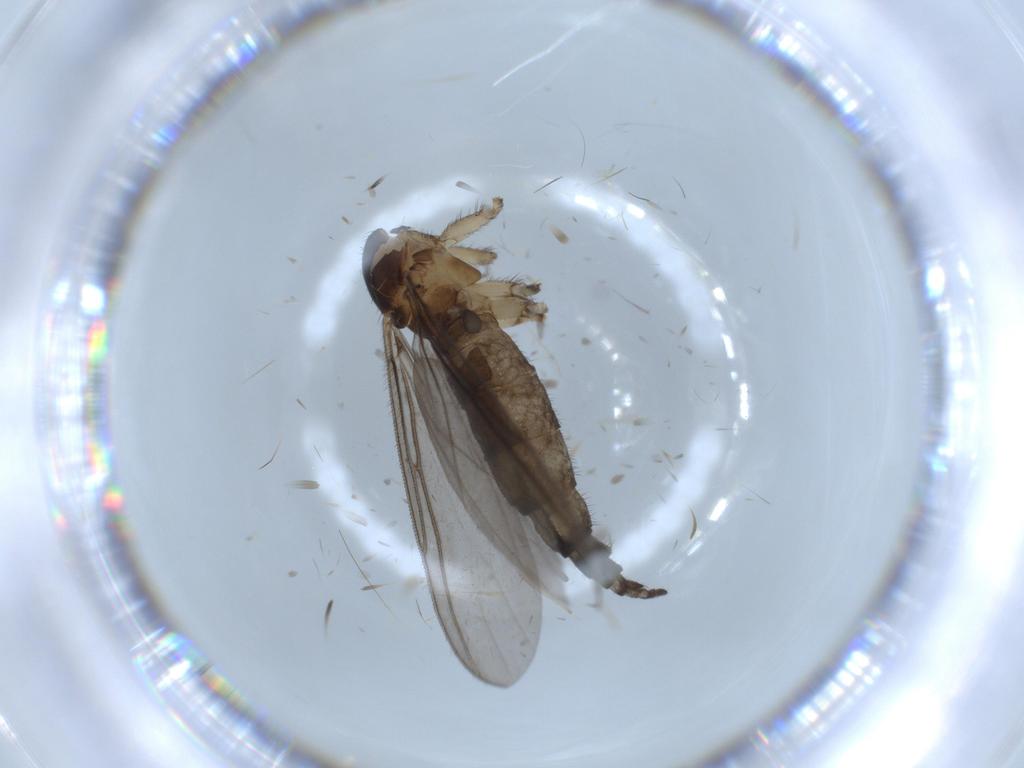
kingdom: Animalia
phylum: Arthropoda
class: Insecta
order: Diptera
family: Sciaridae
